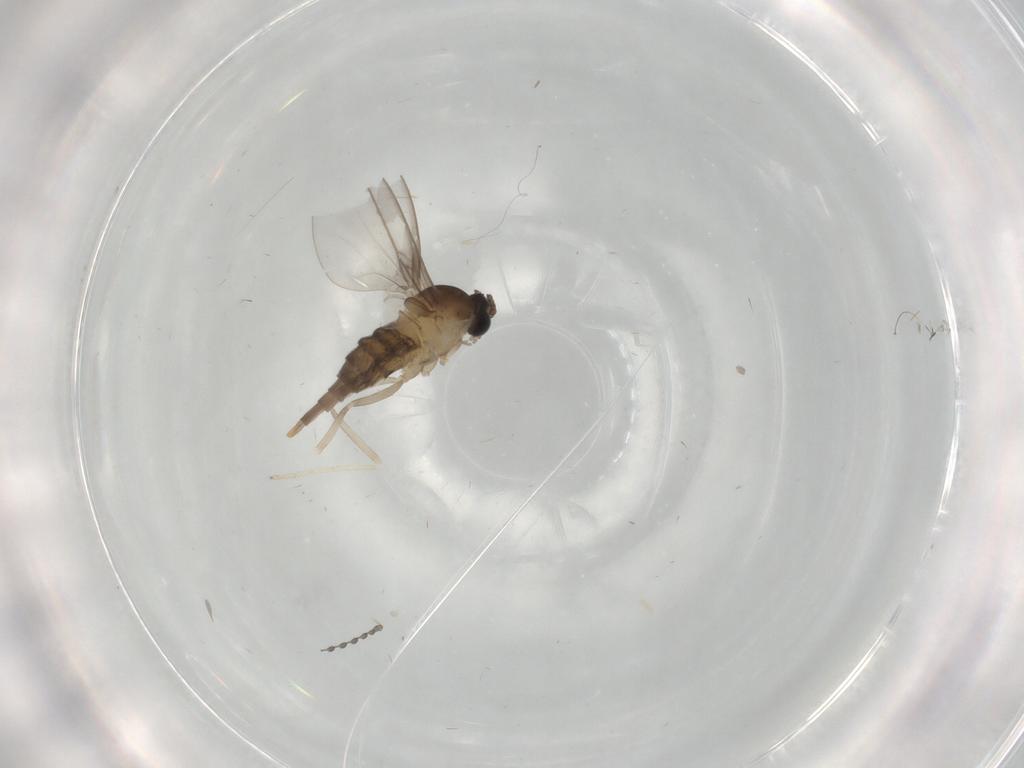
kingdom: Animalia
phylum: Arthropoda
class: Insecta
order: Diptera
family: Cecidomyiidae
